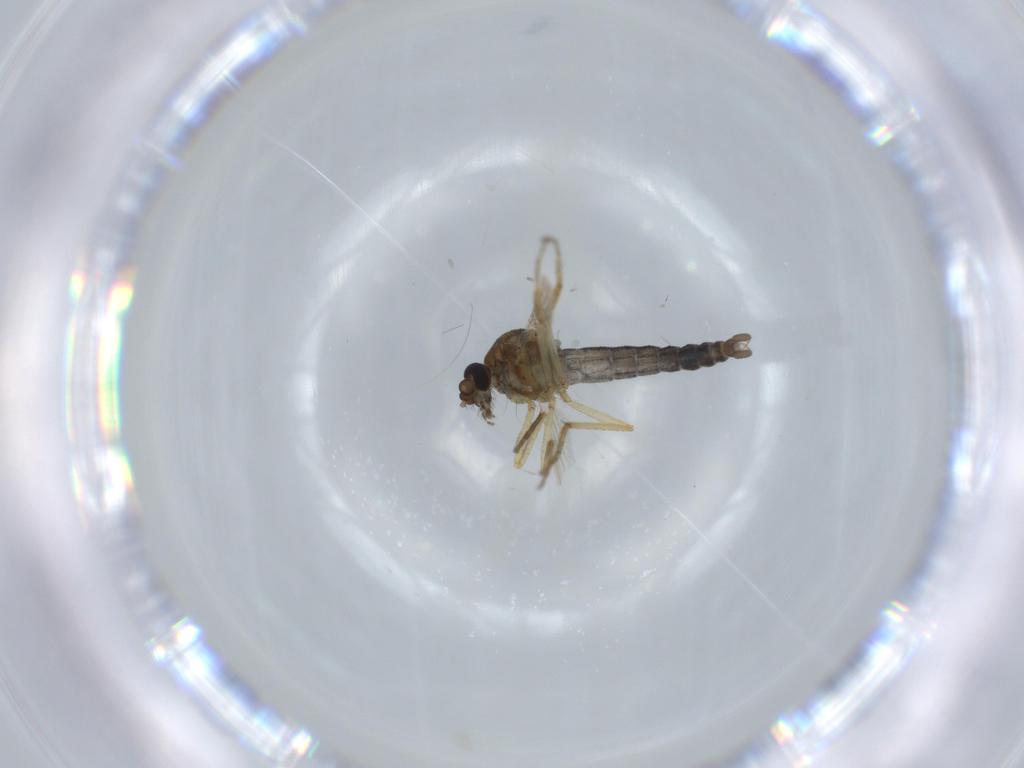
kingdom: Animalia
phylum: Arthropoda
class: Insecta
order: Diptera
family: Ceratopogonidae
